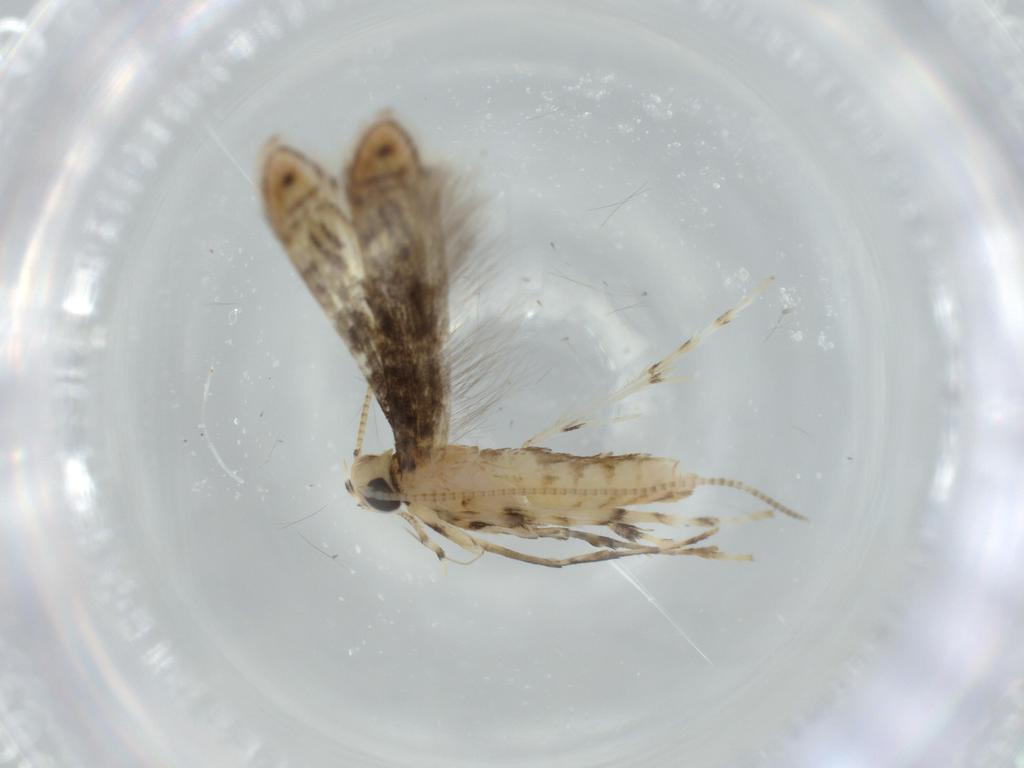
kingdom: Animalia
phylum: Arthropoda
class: Insecta
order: Lepidoptera
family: Gracillariidae
